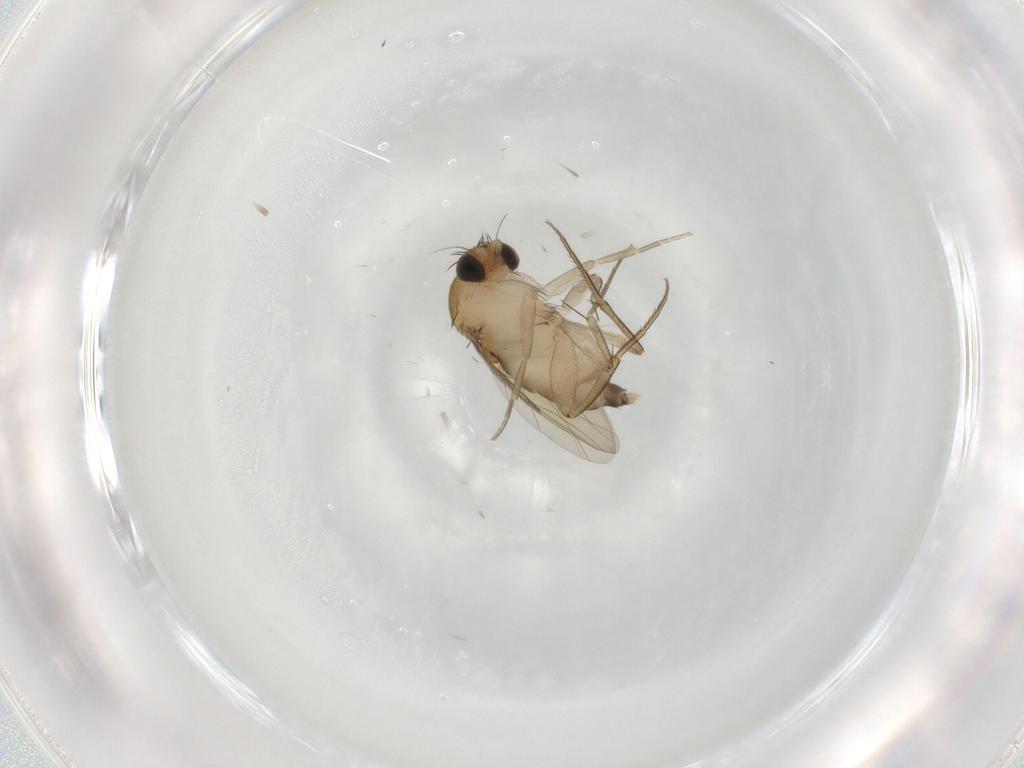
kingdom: Animalia
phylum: Arthropoda
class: Insecta
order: Diptera
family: Phoridae
